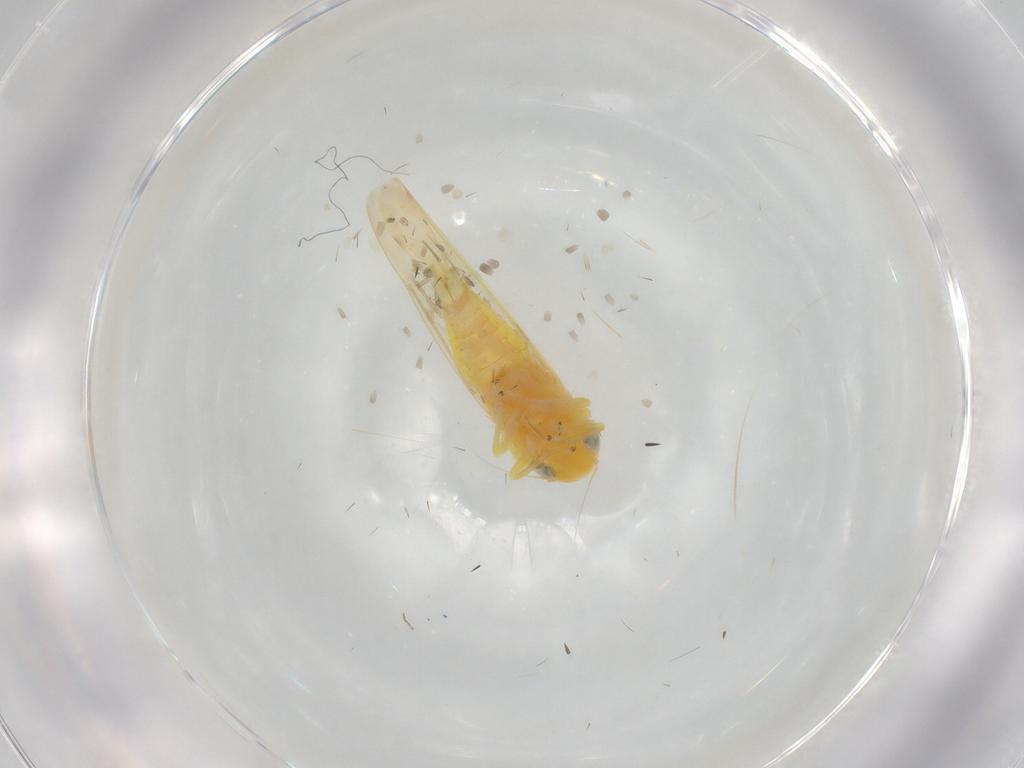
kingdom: Animalia
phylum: Arthropoda
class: Insecta
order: Hemiptera
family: Cicadellidae
